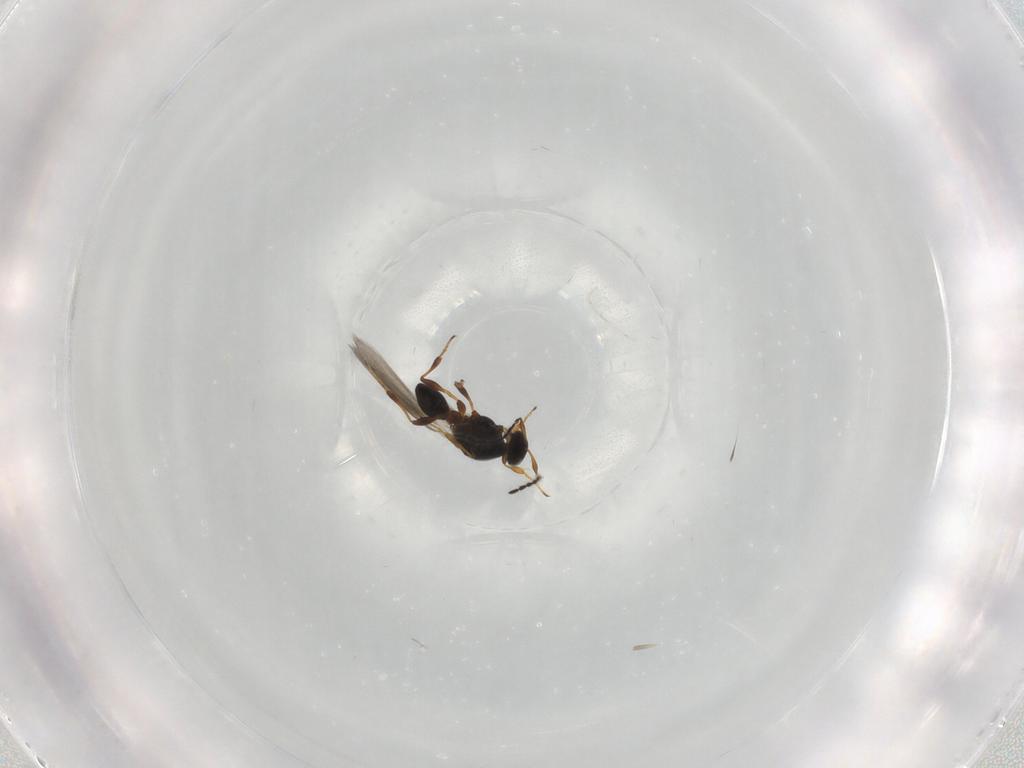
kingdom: Animalia
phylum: Arthropoda
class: Insecta
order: Hymenoptera
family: Platygastridae
